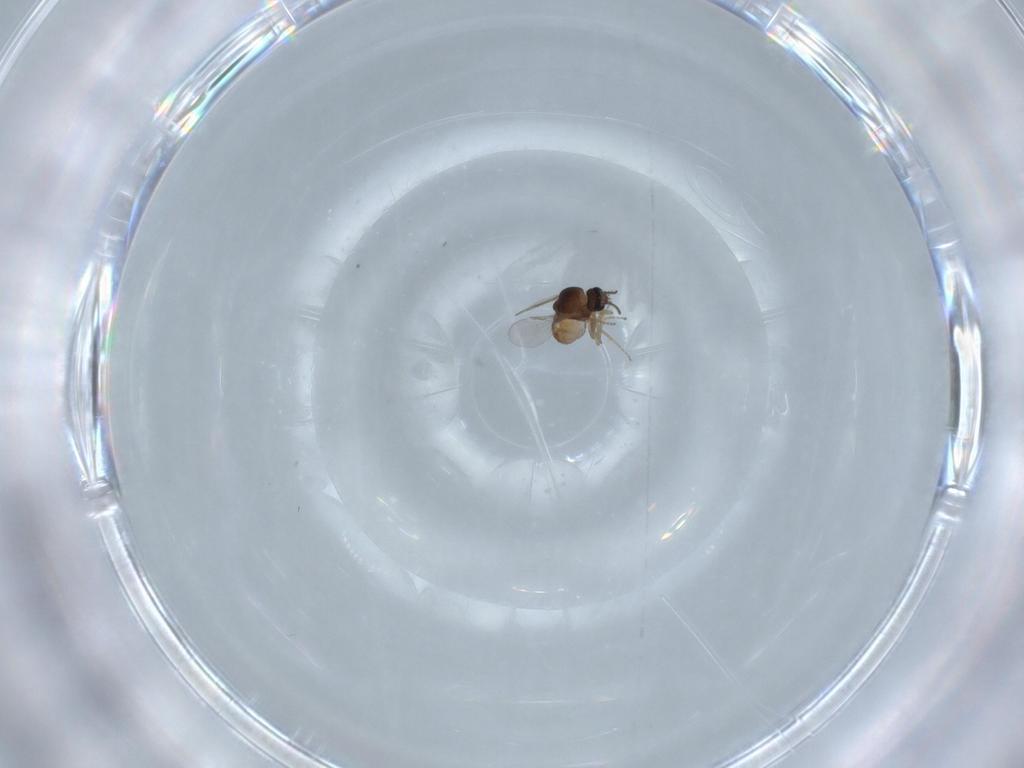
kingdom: Animalia
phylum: Arthropoda
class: Insecta
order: Diptera
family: Ceratopogonidae
